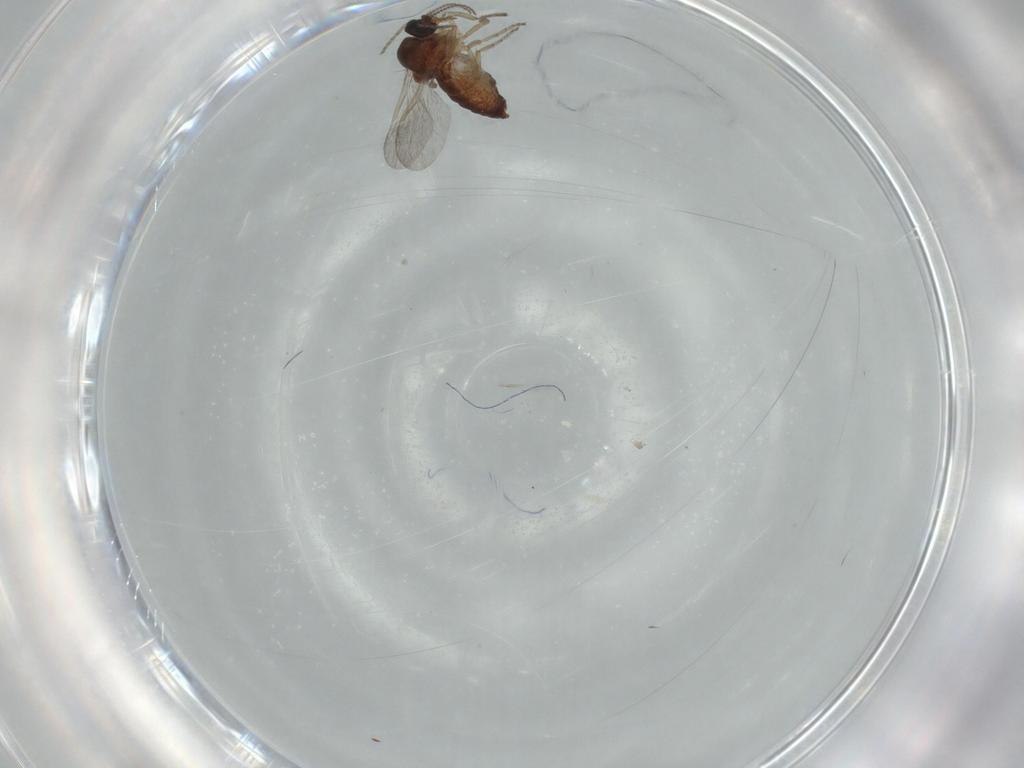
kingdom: Animalia
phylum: Arthropoda
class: Insecta
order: Diptera
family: Ceratopogonidae
